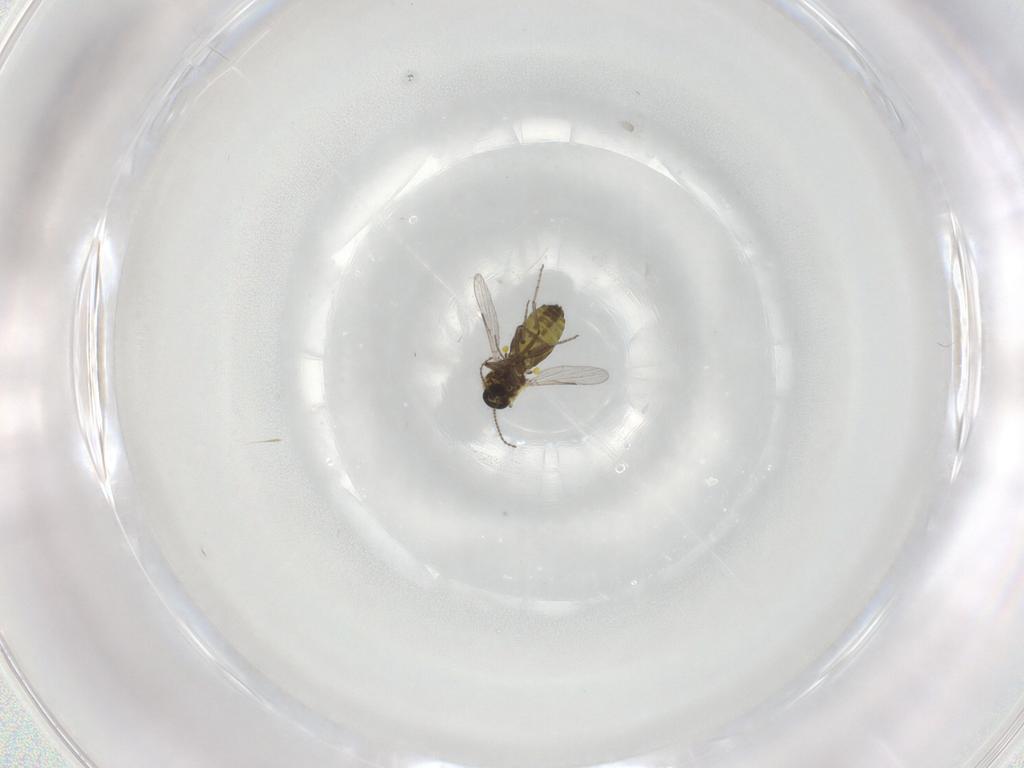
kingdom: Animalia
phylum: Arthropoda
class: Insecta
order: Diptera
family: Ceratopogonidae
